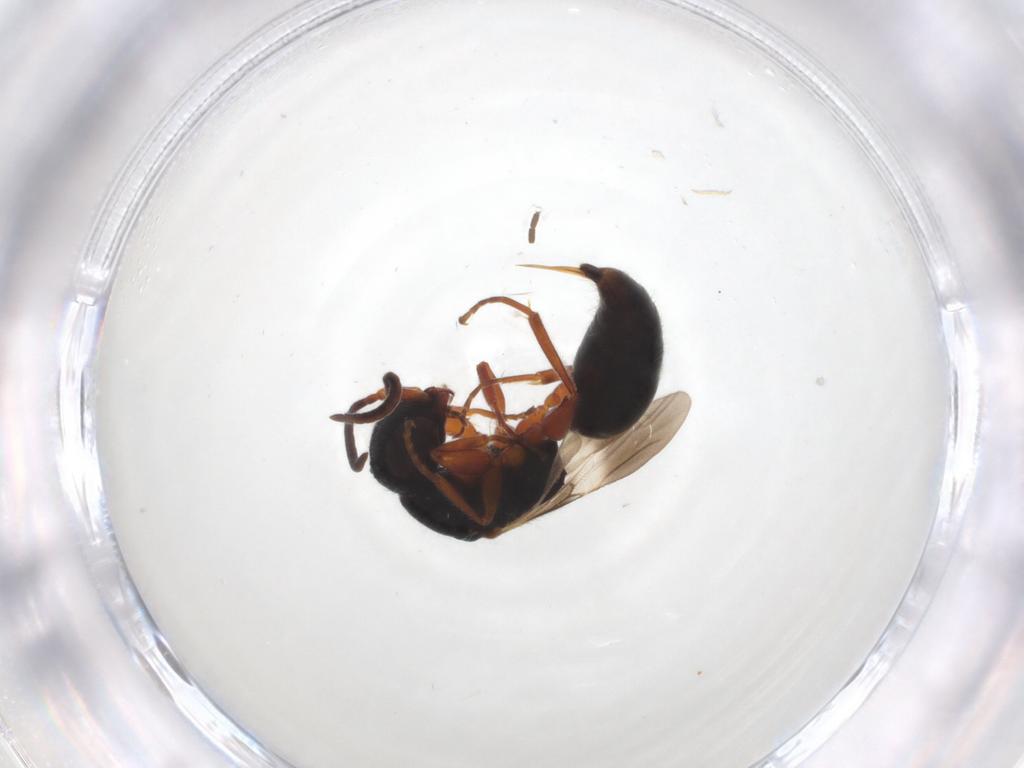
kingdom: Animalia
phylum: Arthropoda
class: Insecta
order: Hymenoptera
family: Bethylidae
